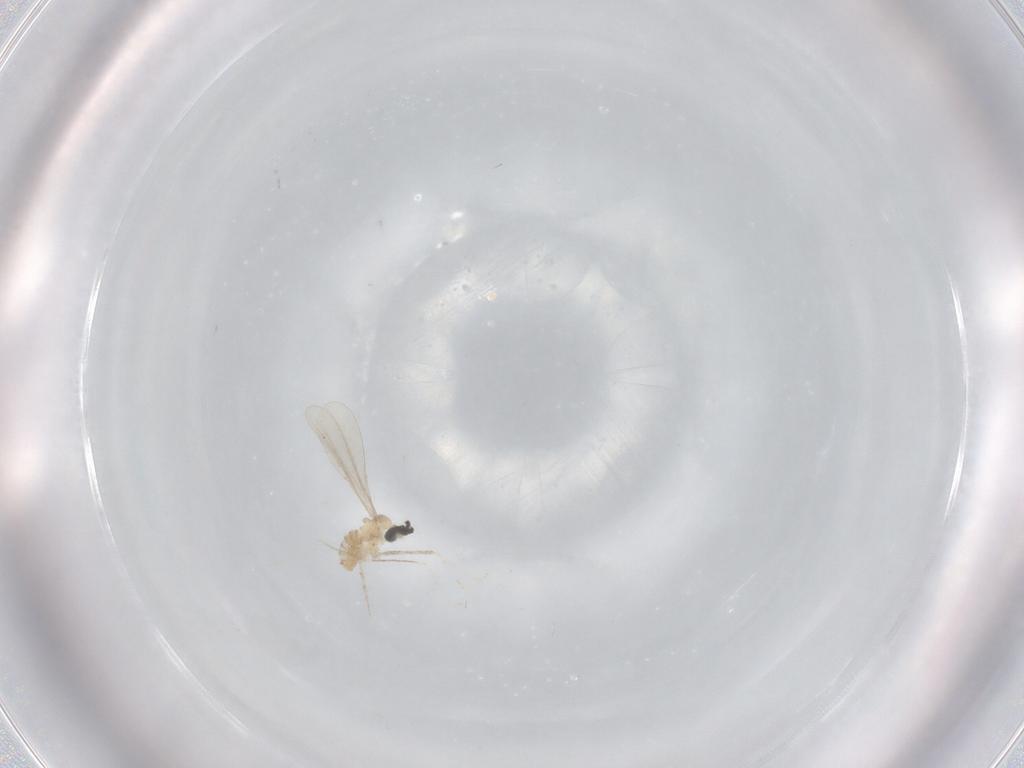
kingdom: Animalia
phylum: Arthropoda
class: Insecta
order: Diptera
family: Cecidomyiidae
